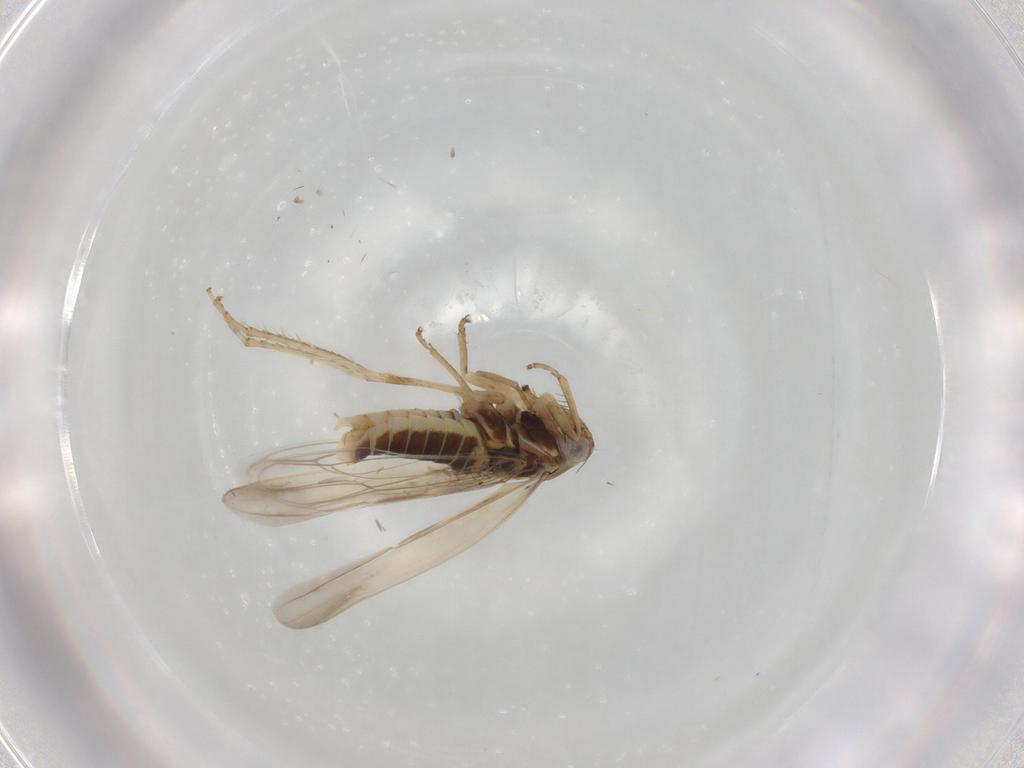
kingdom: Animalia
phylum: Arthropoda
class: Insecta
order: Hemiptera
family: Cicadellidae
